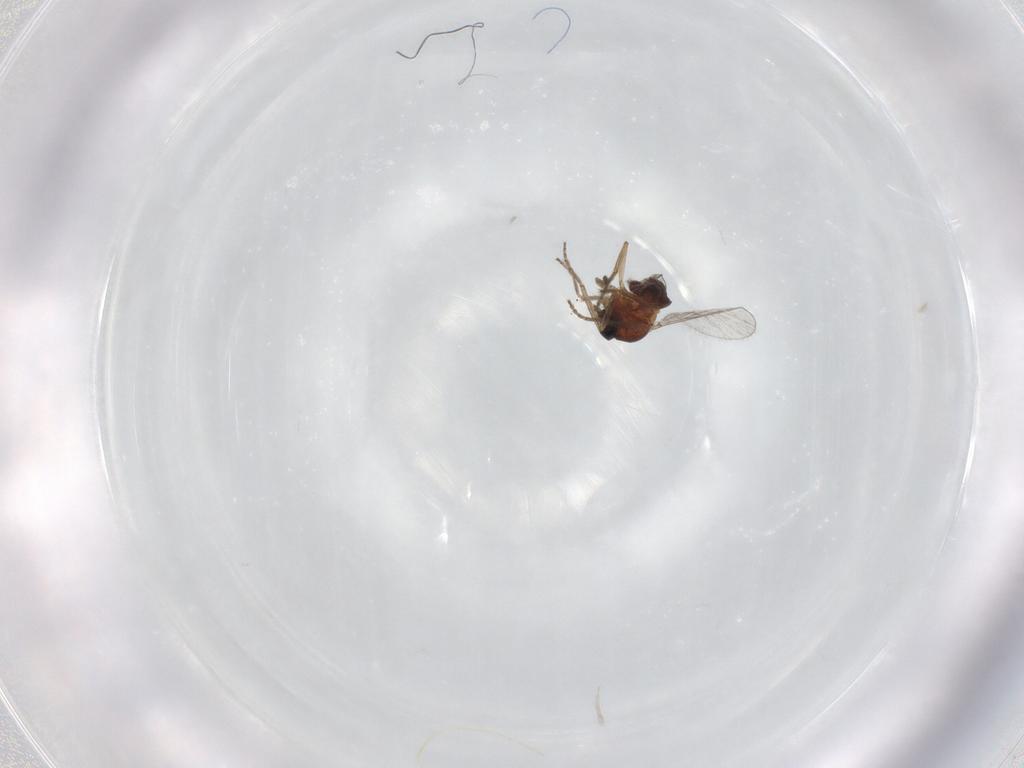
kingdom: Animalia
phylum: Arthropoda
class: Insecta
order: Diptera
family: Ceratopogonidae
